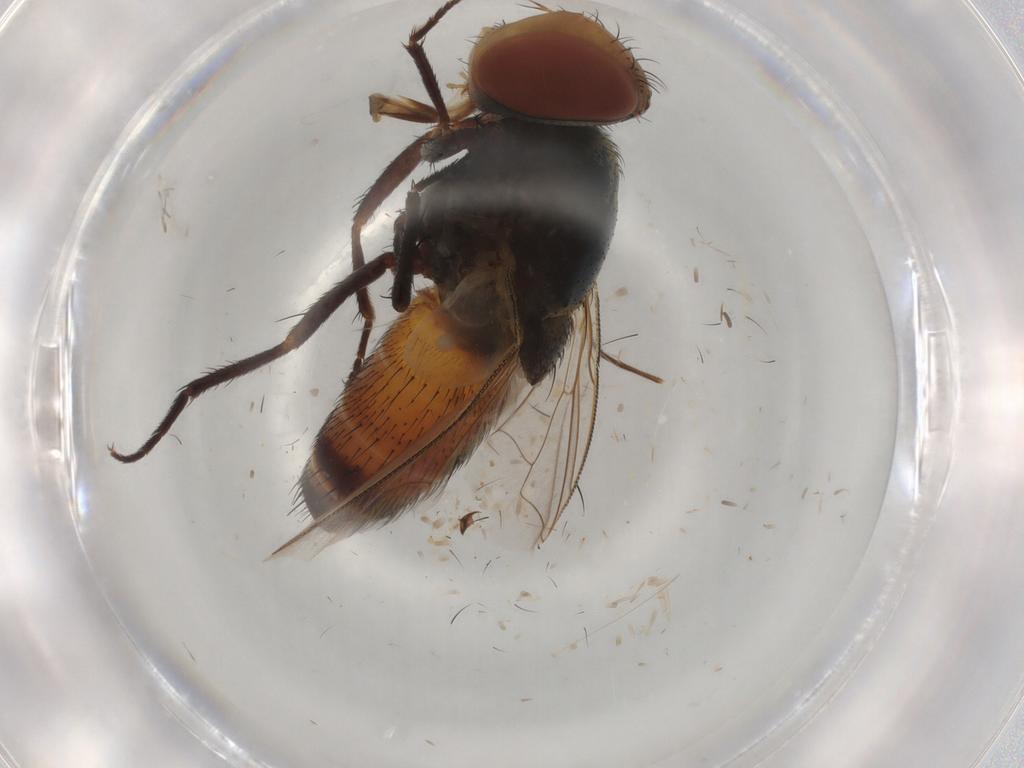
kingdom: Animalia
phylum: Arthropoda
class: Insecta
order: Diptera
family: Sarcophagidae
